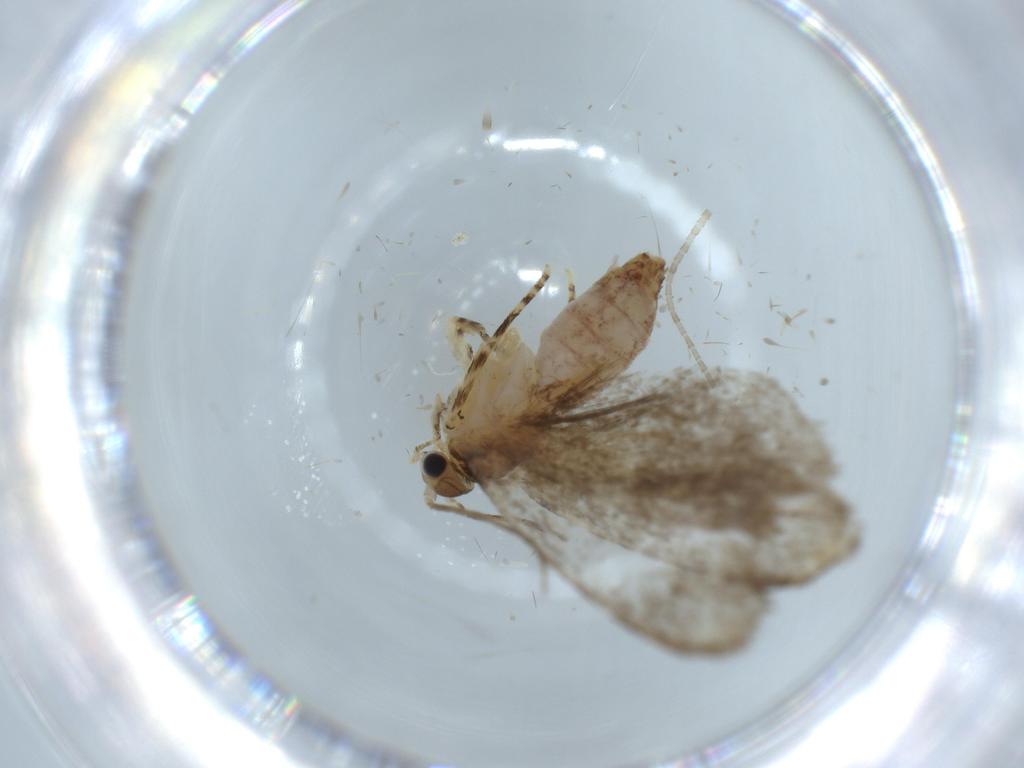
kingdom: Animalia
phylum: Arthropoda
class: Insecta
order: Lepidoptera
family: Tineidae
